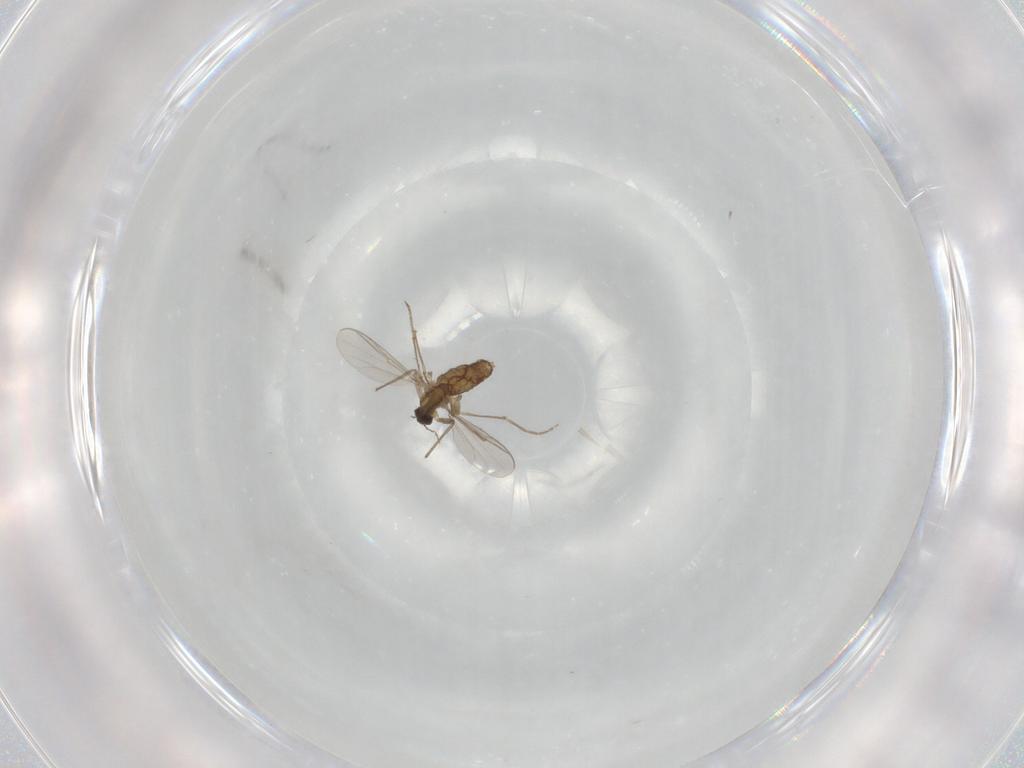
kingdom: Animalia
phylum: Arthropoda
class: Insecta
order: Diptera
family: Chironomidae
